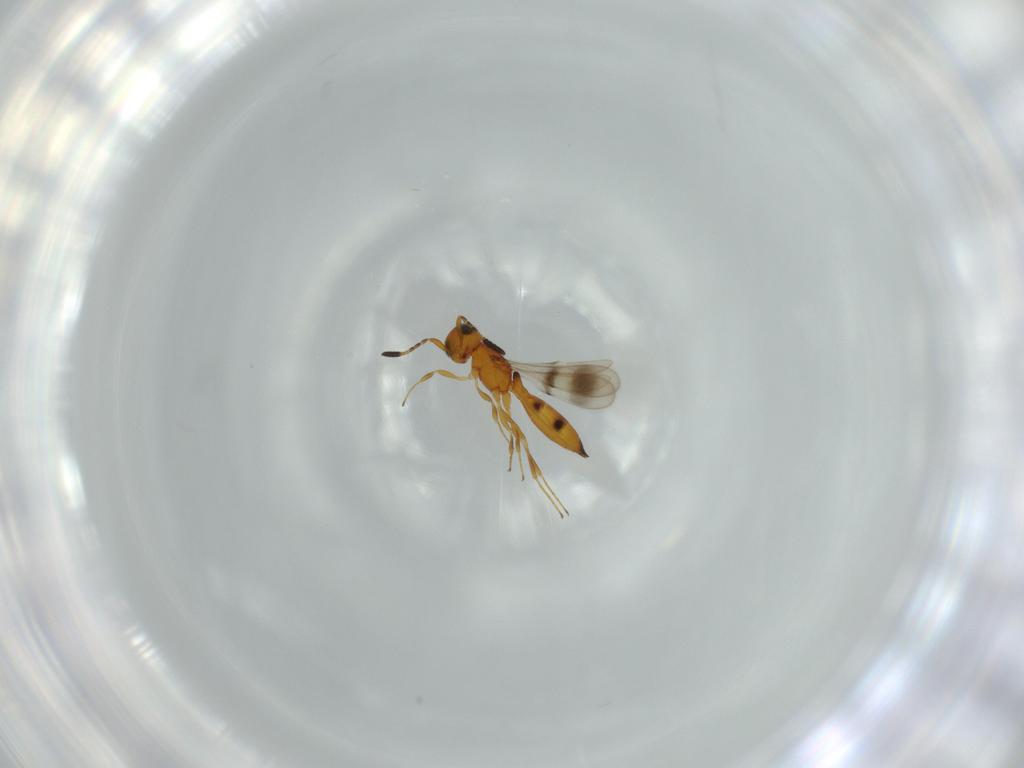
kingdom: Animalia
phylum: Arthropoda
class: Insecta
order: Hymenoptera
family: Scelionidae
